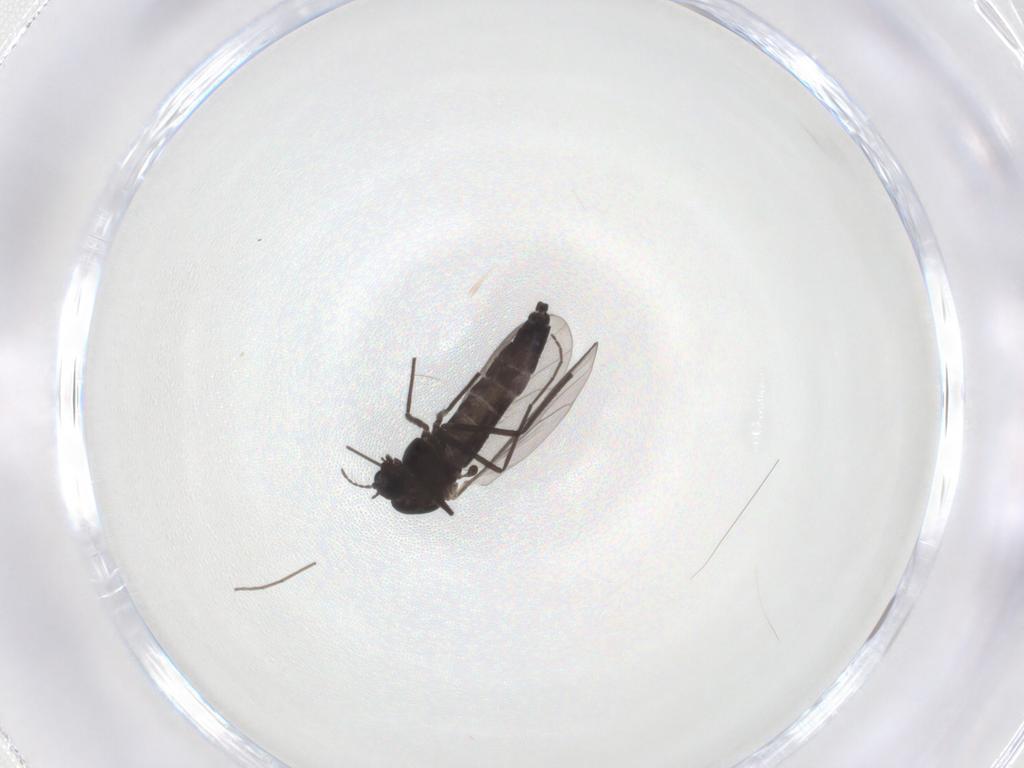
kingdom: Animalia
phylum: Arthropoda
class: Insecta
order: Diptera
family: Chironomidae
